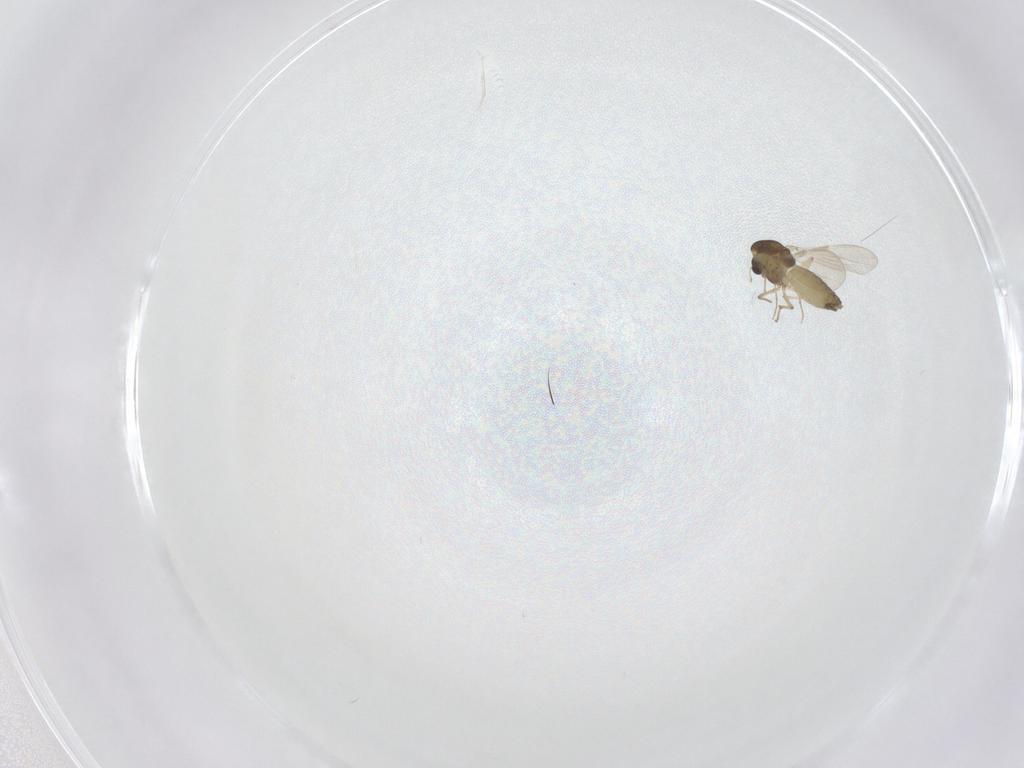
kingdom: Animalia
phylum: Arthropoda
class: Insecta
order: Diptera
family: Chironomidae
